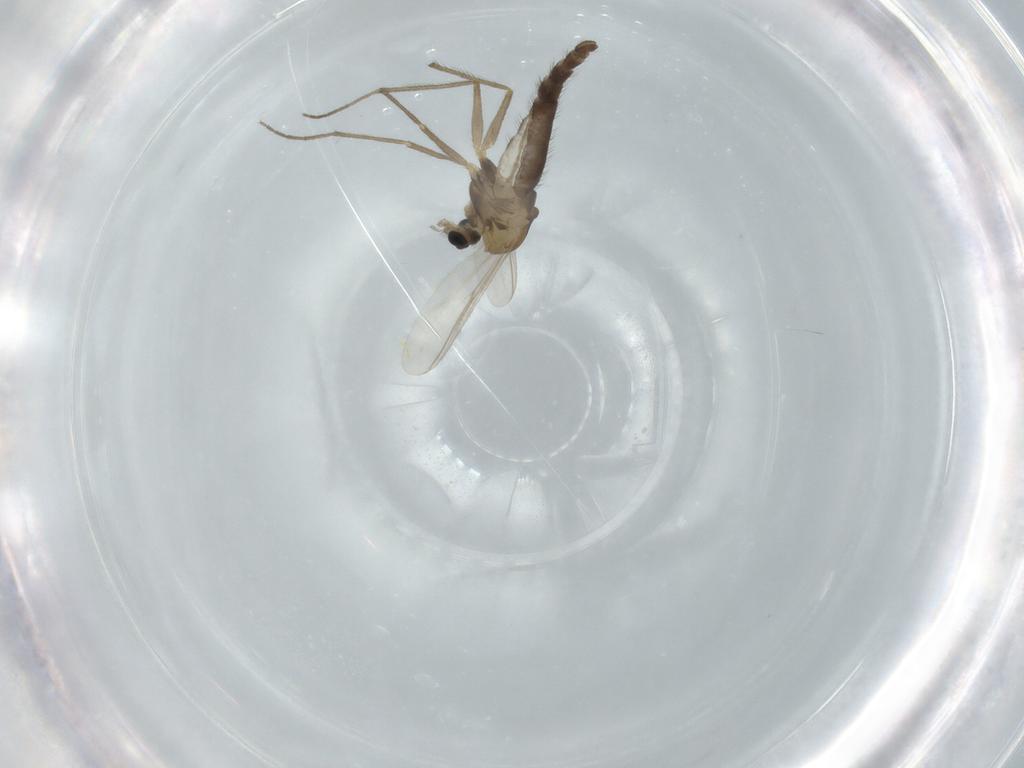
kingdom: Animalia
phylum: Arthropoda
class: Insecta
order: Diptera
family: Chironomidae
